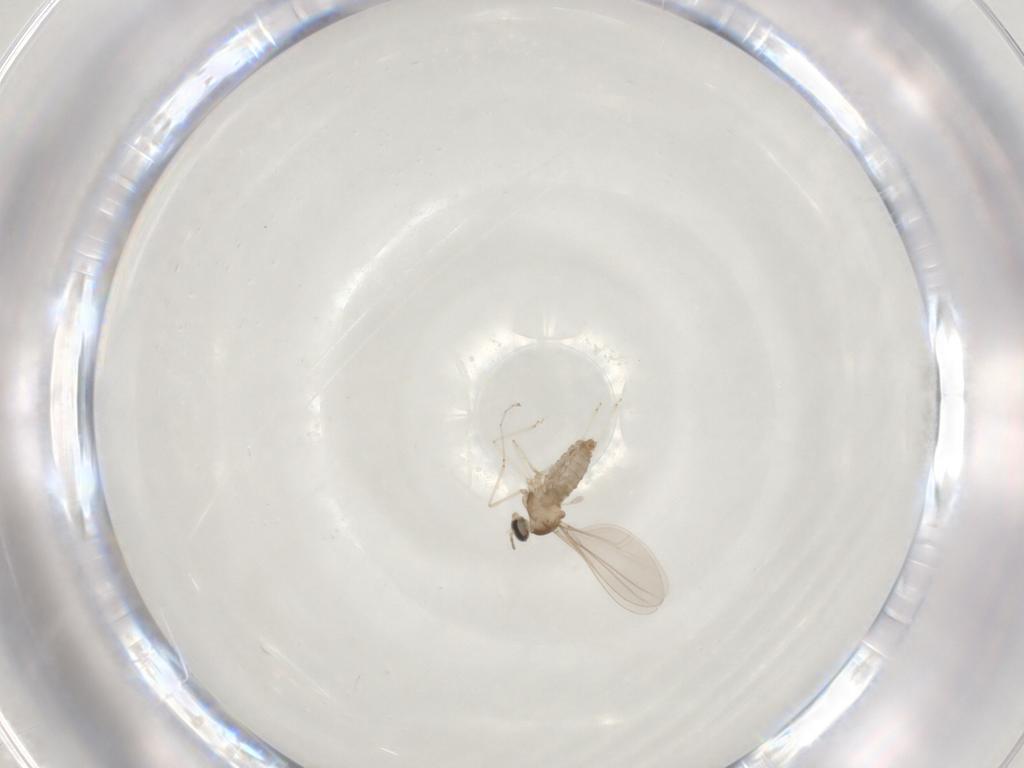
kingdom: Animalia
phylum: Arthropoda
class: Insecta
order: Diptera
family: Cecidomyiidae
